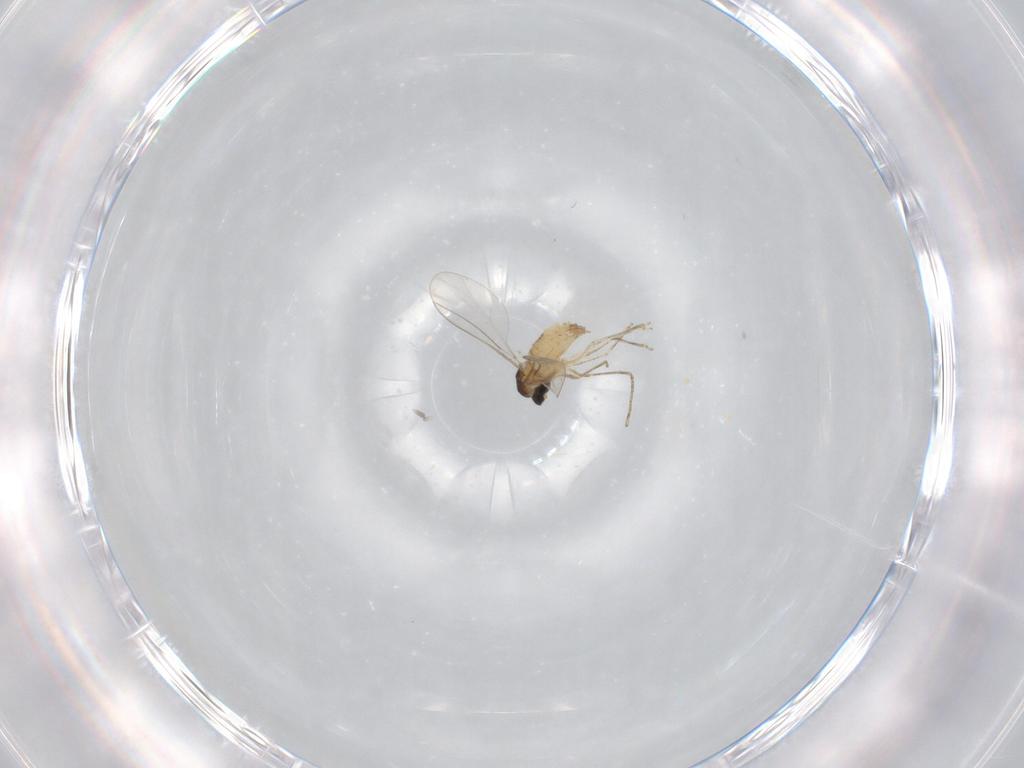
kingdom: Animalia
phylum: Arthropoda
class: Insecta
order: Diptera
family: Cecidomyiidae
